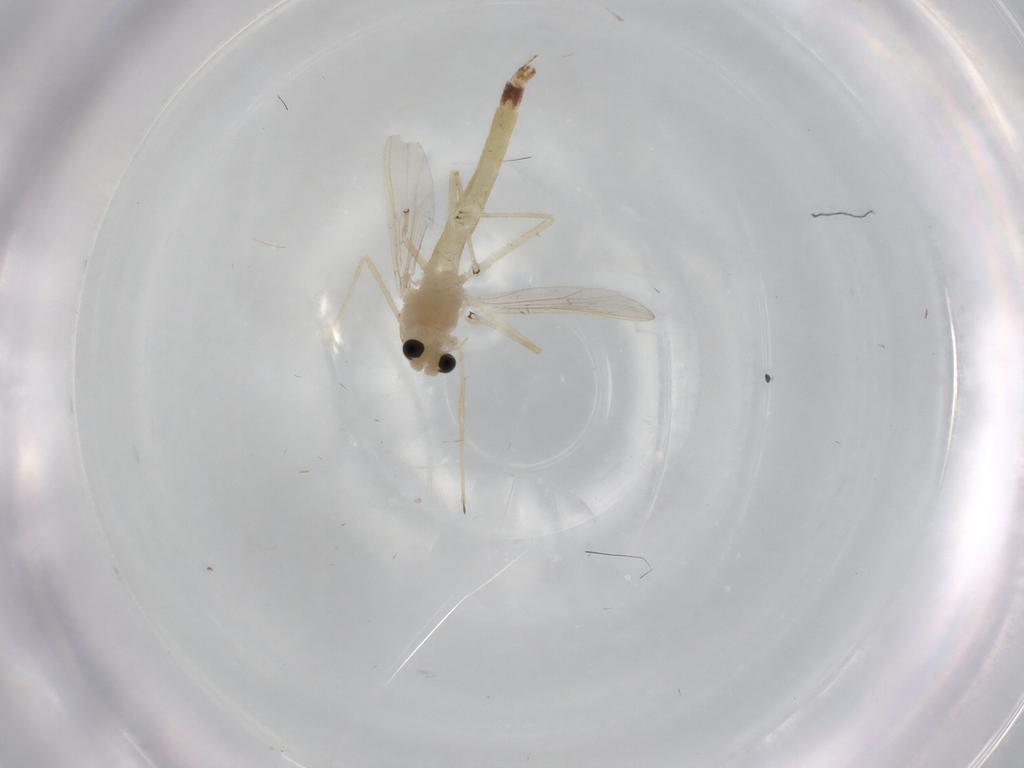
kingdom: Animalia
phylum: Arthropoda
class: Insecta
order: Diptera
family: Chironomidae
